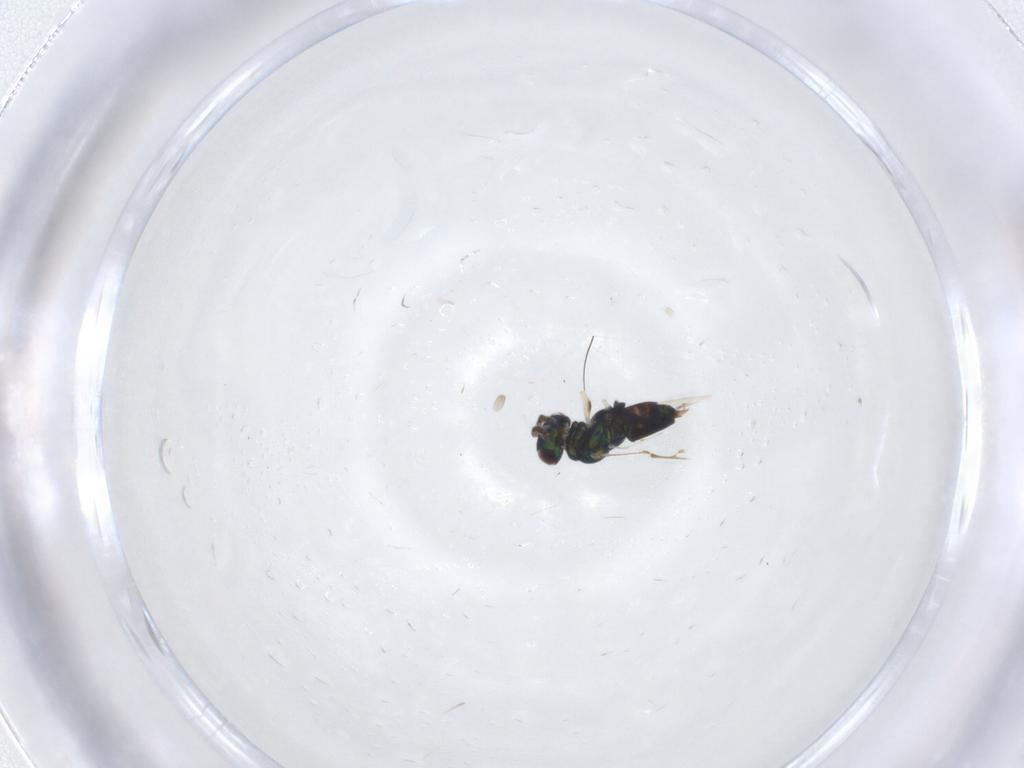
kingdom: Animalia
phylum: Arthropoda
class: Insecta
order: Hymenoptera
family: Pirenidae
